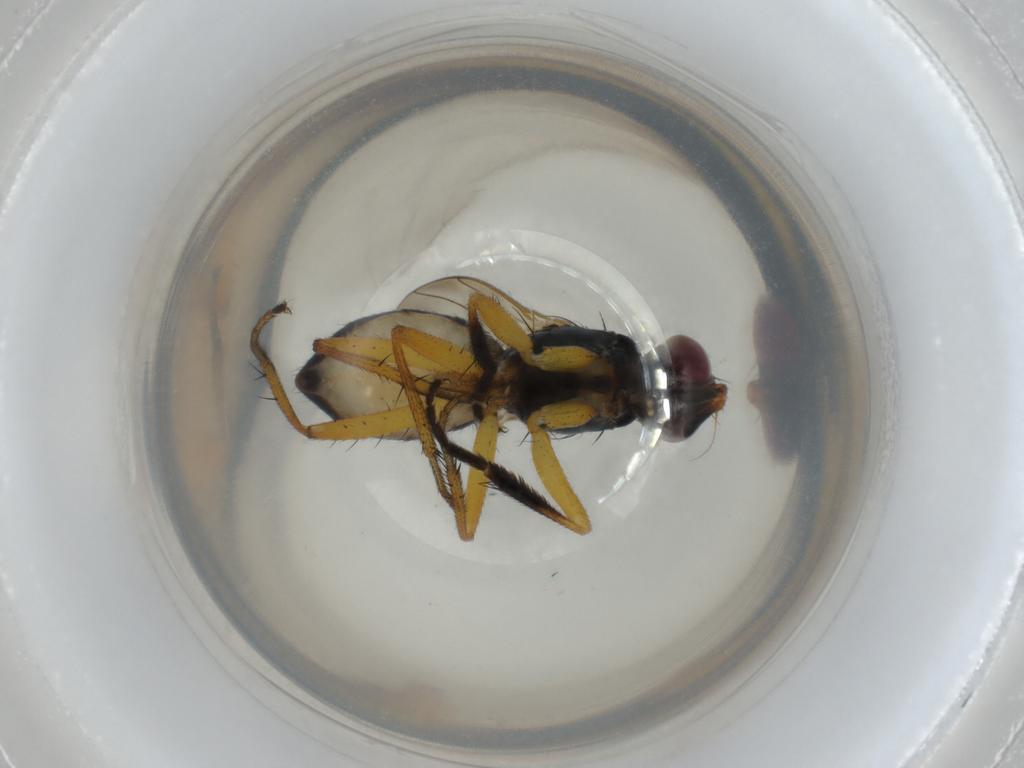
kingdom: Animalia
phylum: Arthropoda
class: Insecta
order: Diptera
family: Muscidae
